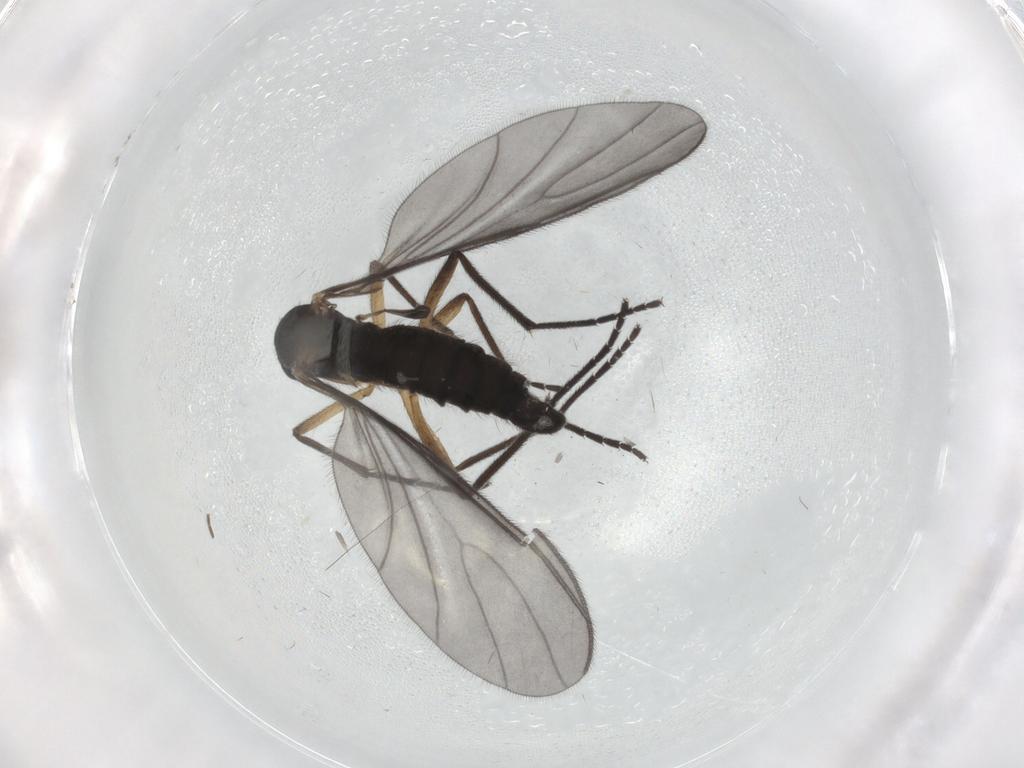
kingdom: Animalia
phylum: Arthropoda
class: Insecta
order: Diptera
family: Sciaridae
